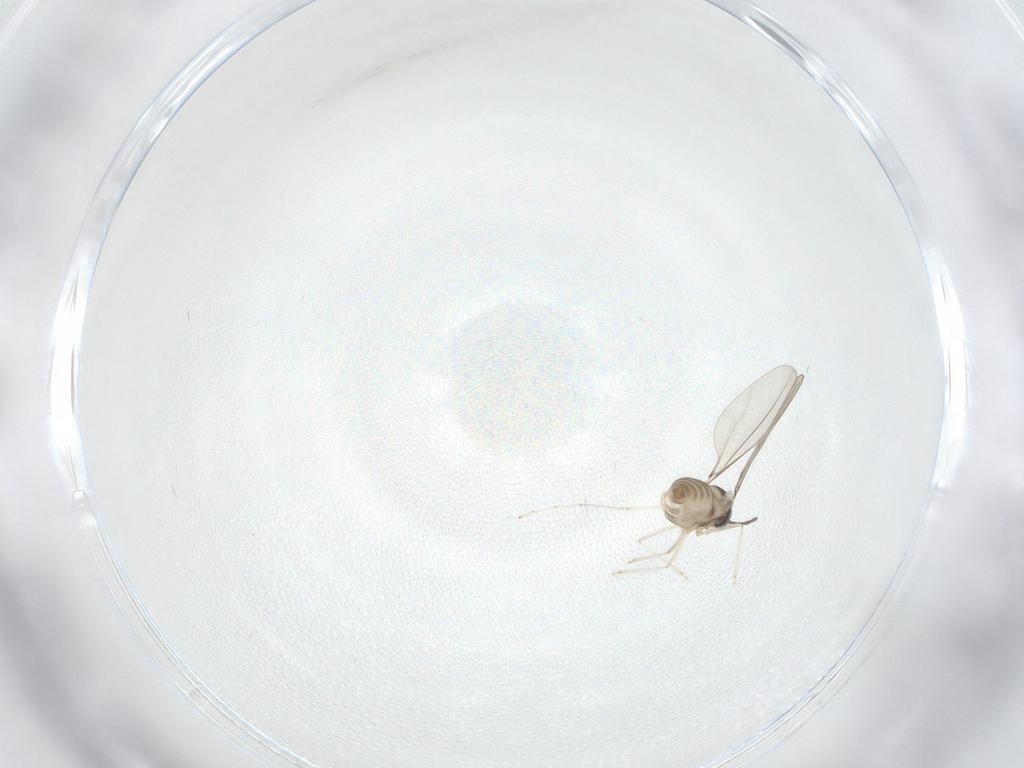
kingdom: Animalia
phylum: Arthropoda
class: Insecta
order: Diptera
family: Cecidomyiidae
